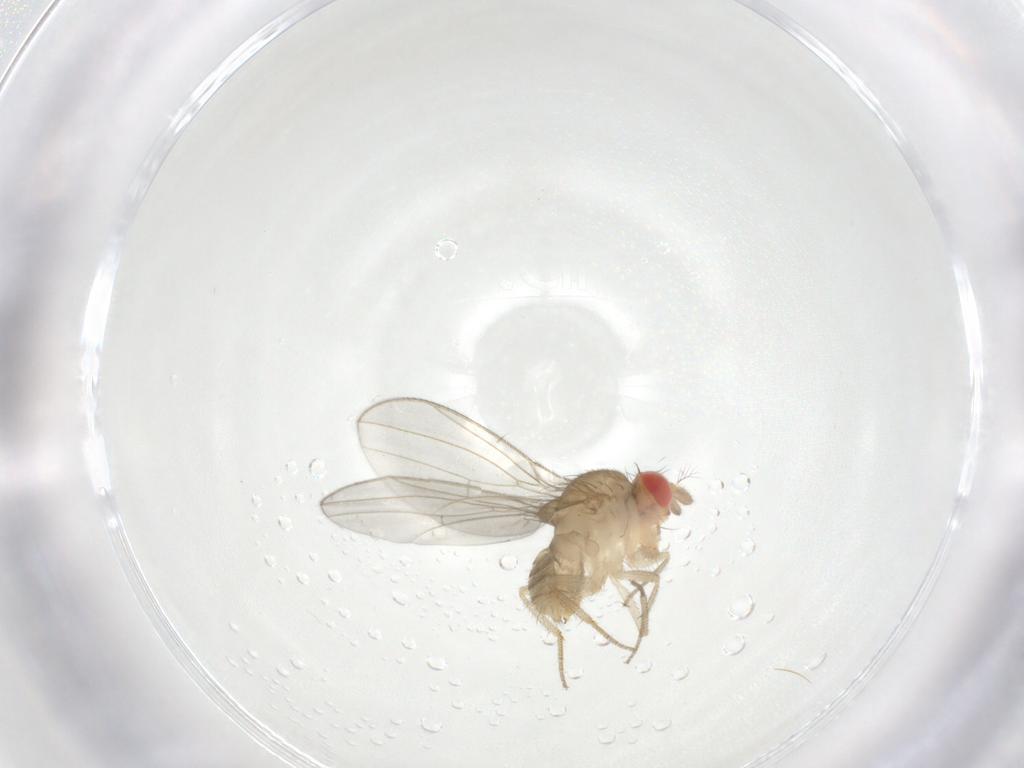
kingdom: Animalia
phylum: Arthropoda
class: Insecta
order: Diptera
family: Drosophilidae
